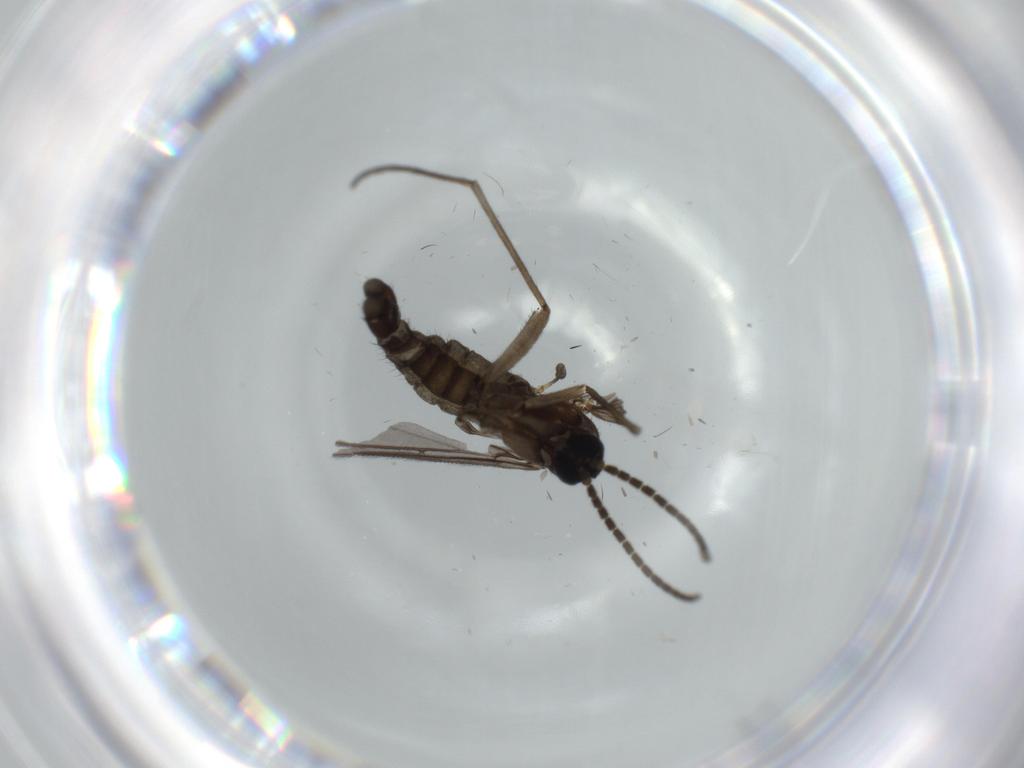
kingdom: Animalia
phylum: Arthropoda
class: Insecta
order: Diptera
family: Sciaridae
